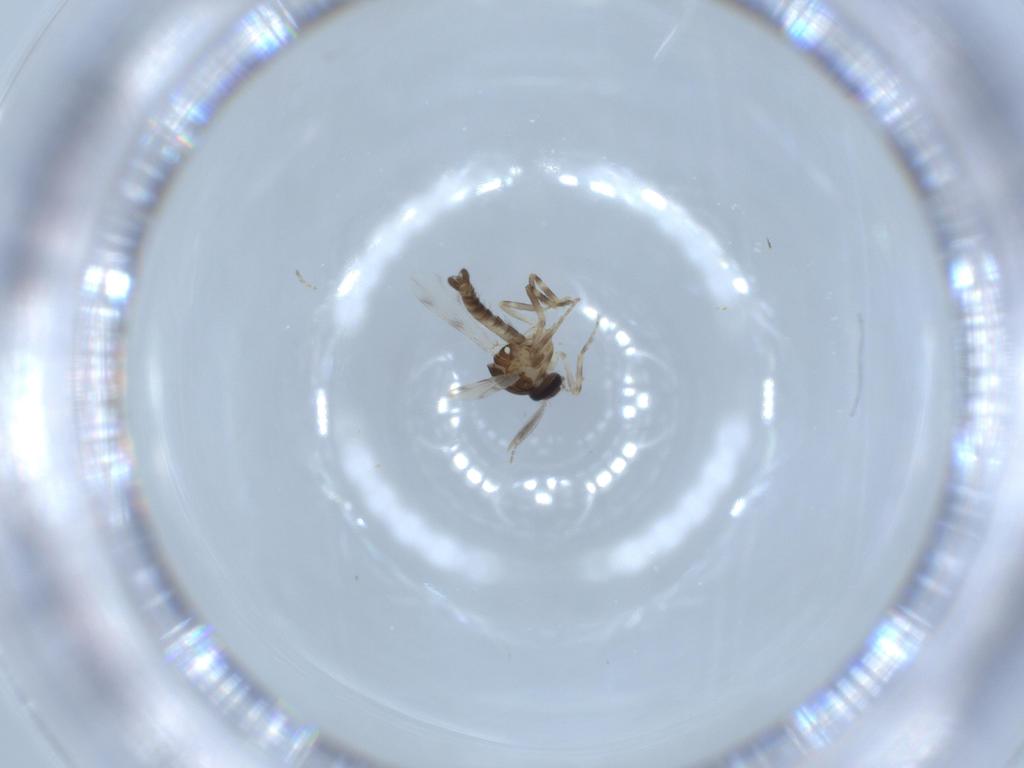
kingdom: Animalia
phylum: Arthropoda
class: Insecta
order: Diptera
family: Ceratopogonidae
